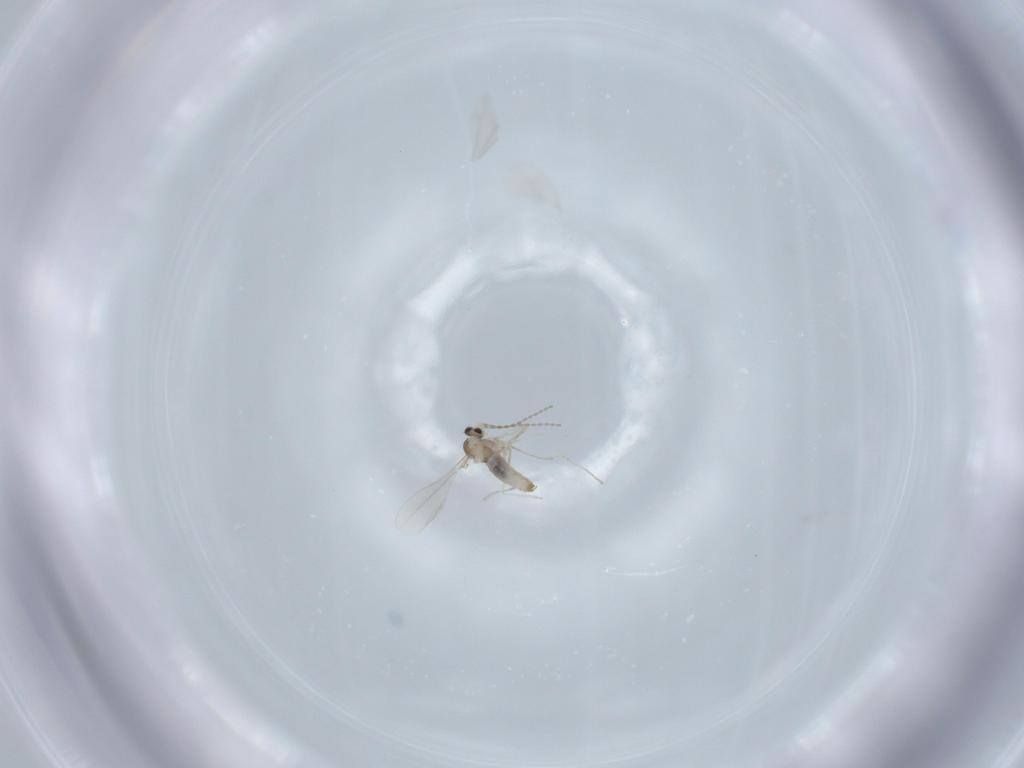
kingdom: Animalia
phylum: Arthropoda
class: Insecta
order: Diptera
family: Cecidomyiidae
